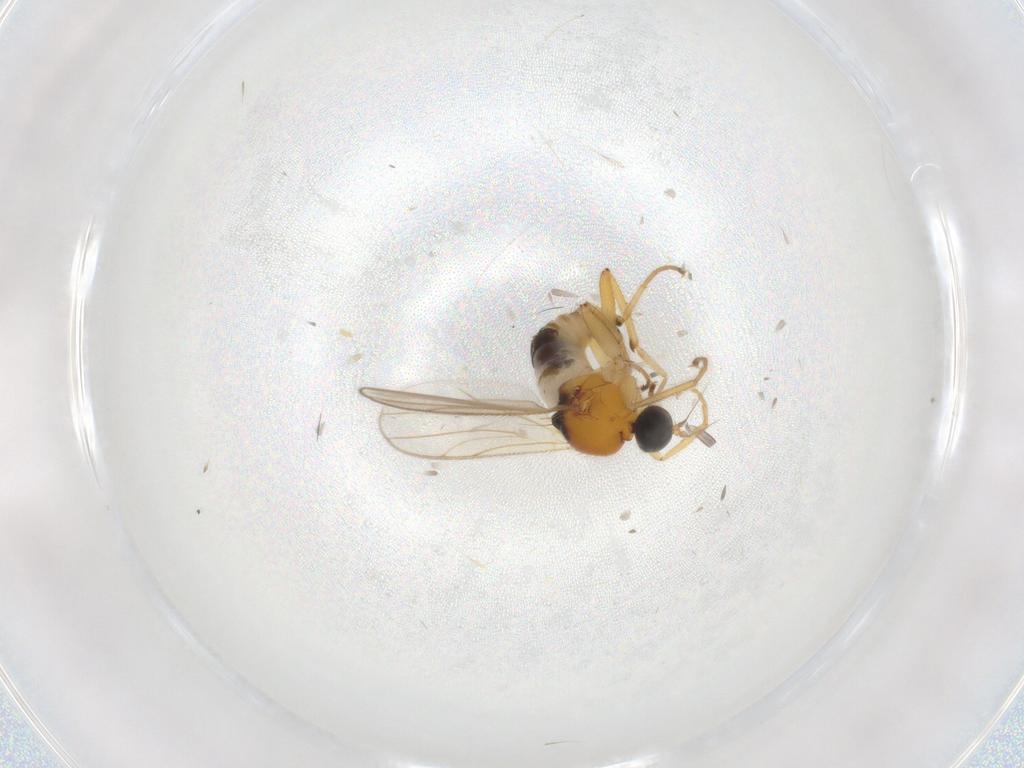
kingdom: Animalia
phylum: Arthropoda
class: Insecta
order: Diptera
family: Hybotidae
